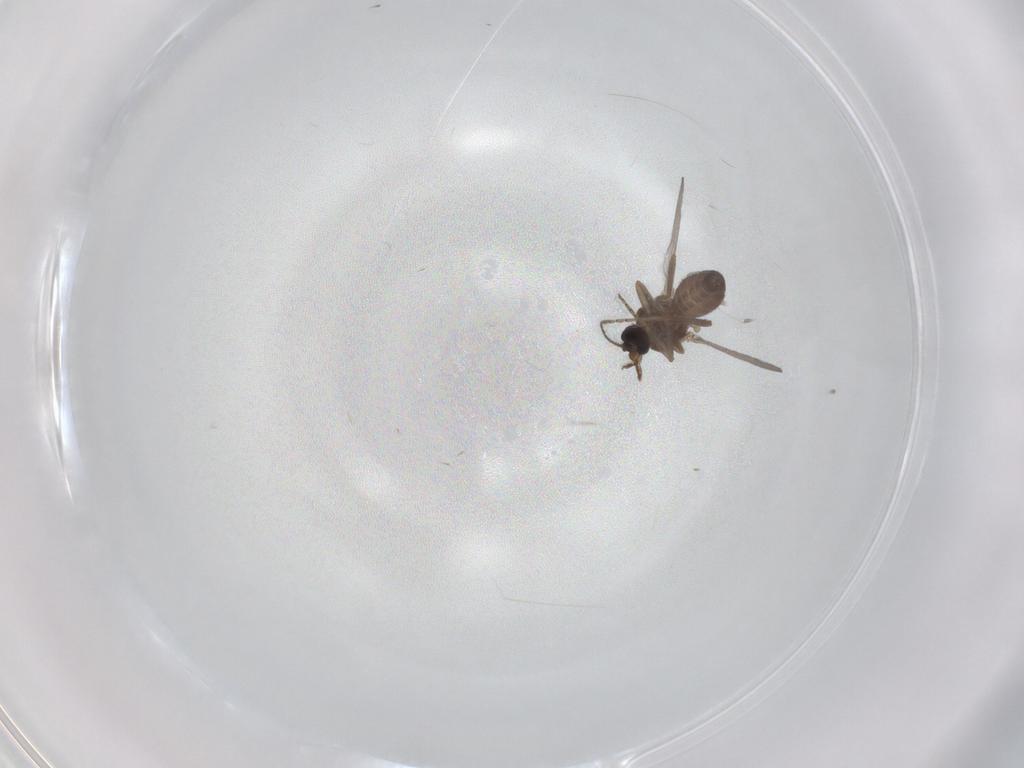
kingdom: Animalia
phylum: Arthropoda
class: Insecta
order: Diptera
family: Ceratopogonidae
